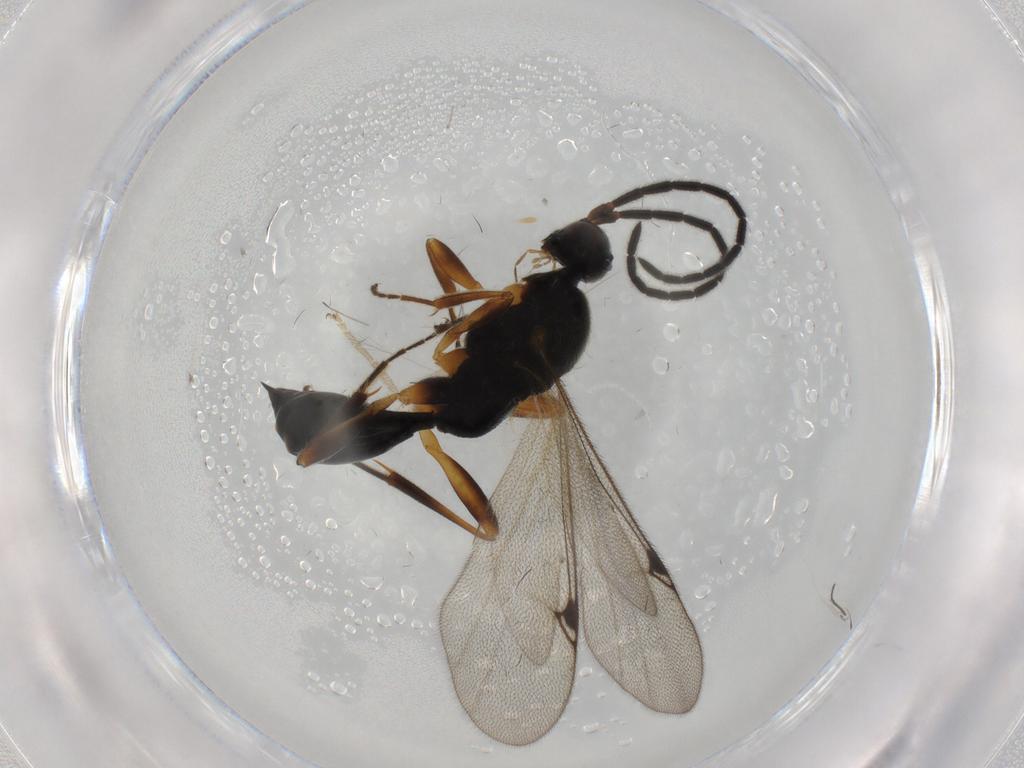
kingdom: Animalia
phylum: Arthropoda
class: Insecta
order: Hymenoptera
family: Proctotrupidae
